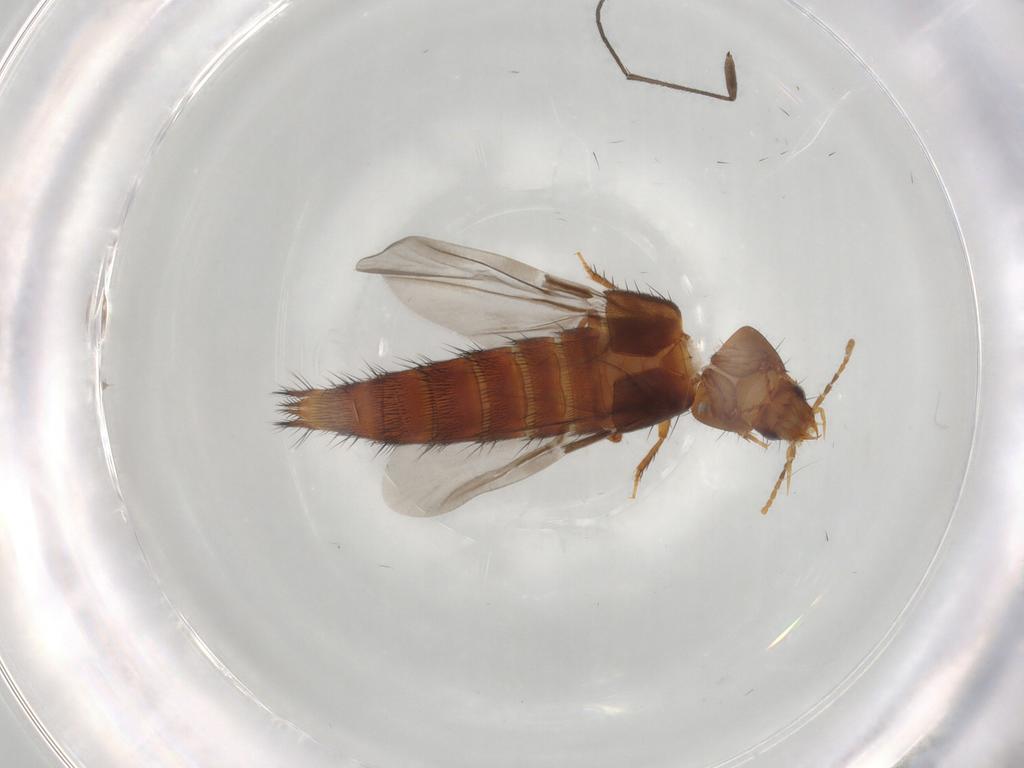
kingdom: Animalia
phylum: Arthropoda
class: Insecta
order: Coleoptera
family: Staphylinidae
